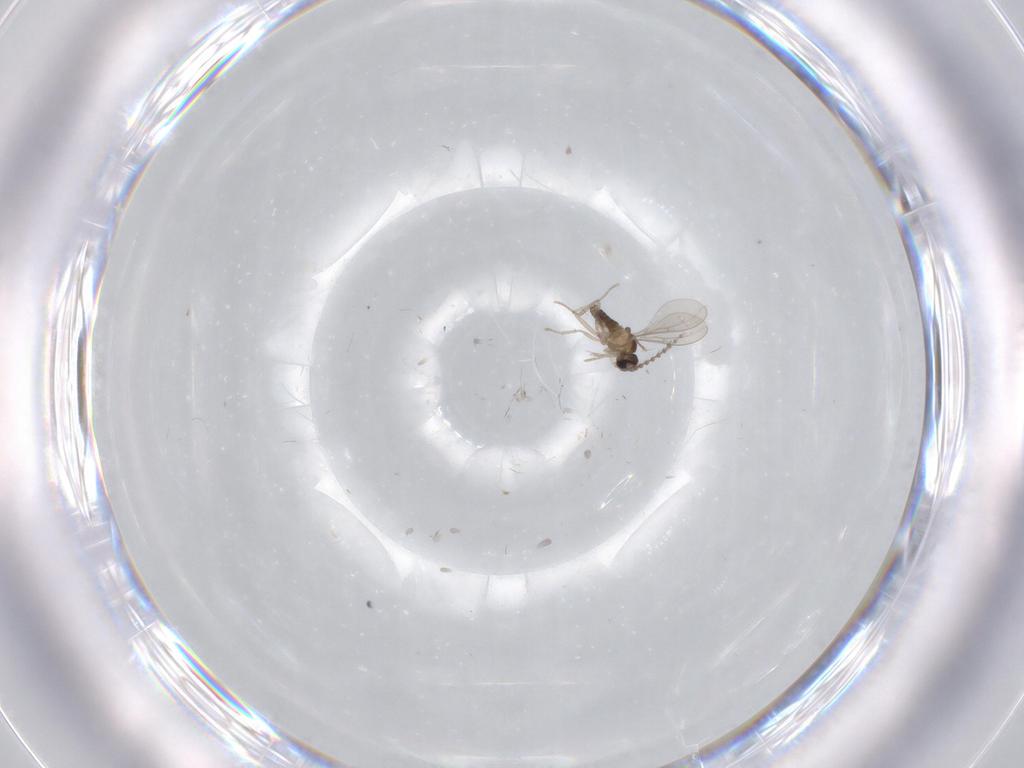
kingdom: Animalia
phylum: Arthropoda
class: Insecta
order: Diptera
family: Cecidomyiidae
